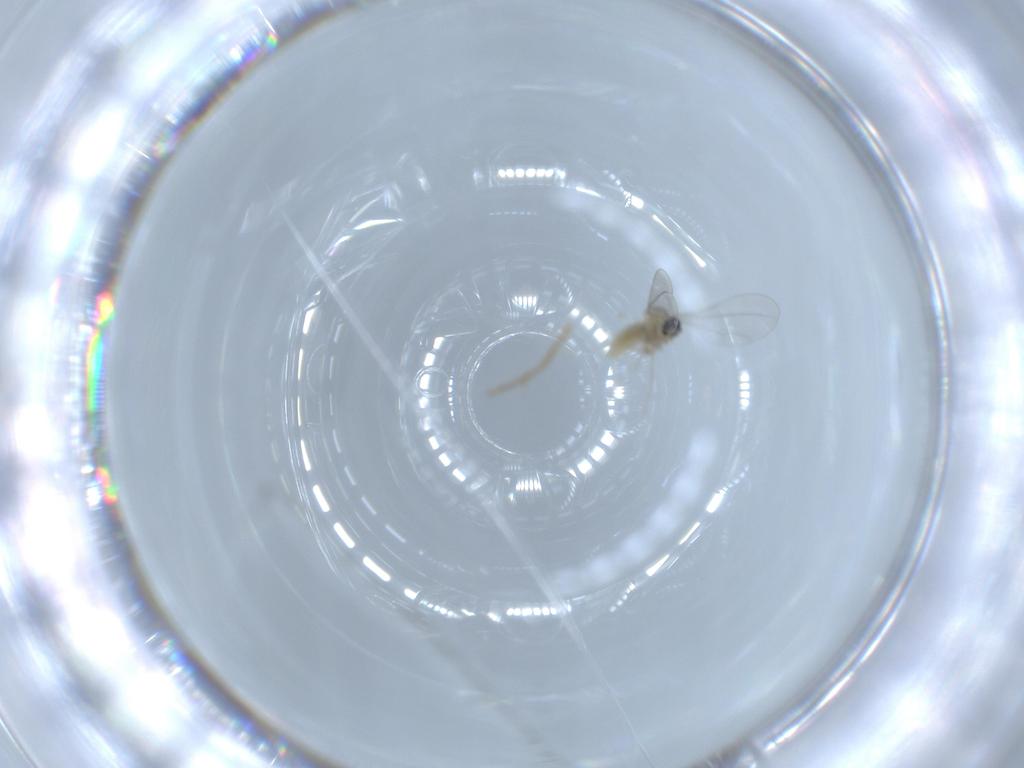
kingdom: Animalia
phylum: Arthropoda
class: Insecta
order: Diptera
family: Ceratopogonidae
